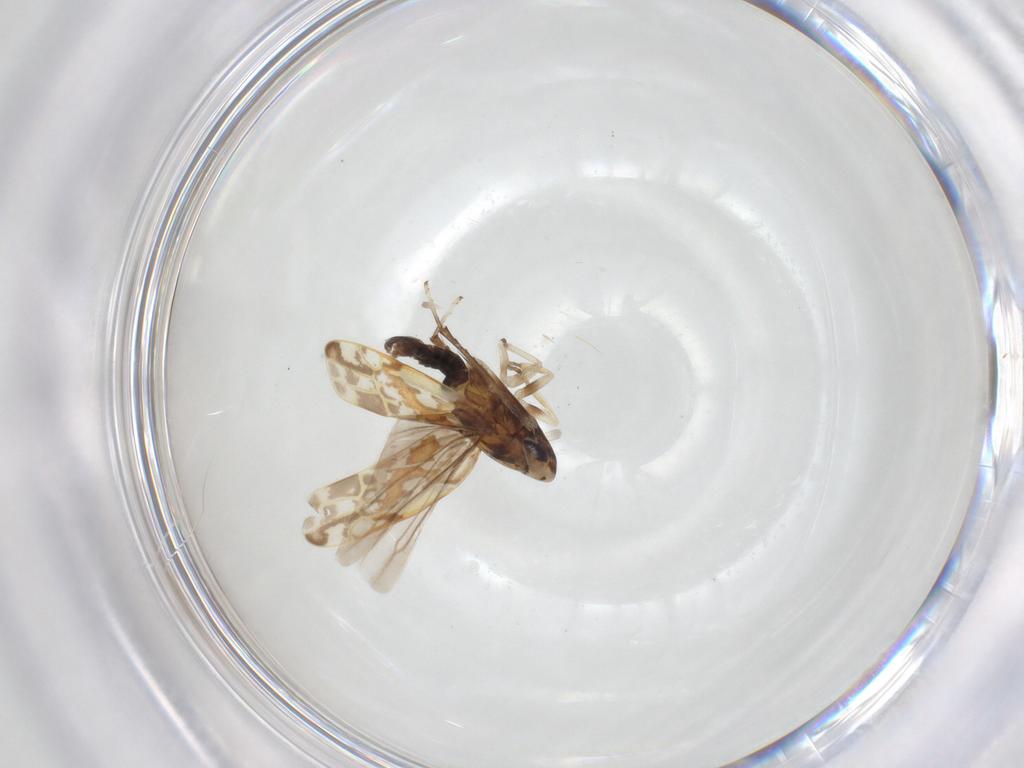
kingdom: Animalia
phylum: Arthropoda
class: Insecta
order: Hemiptera
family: Cicadellidae
